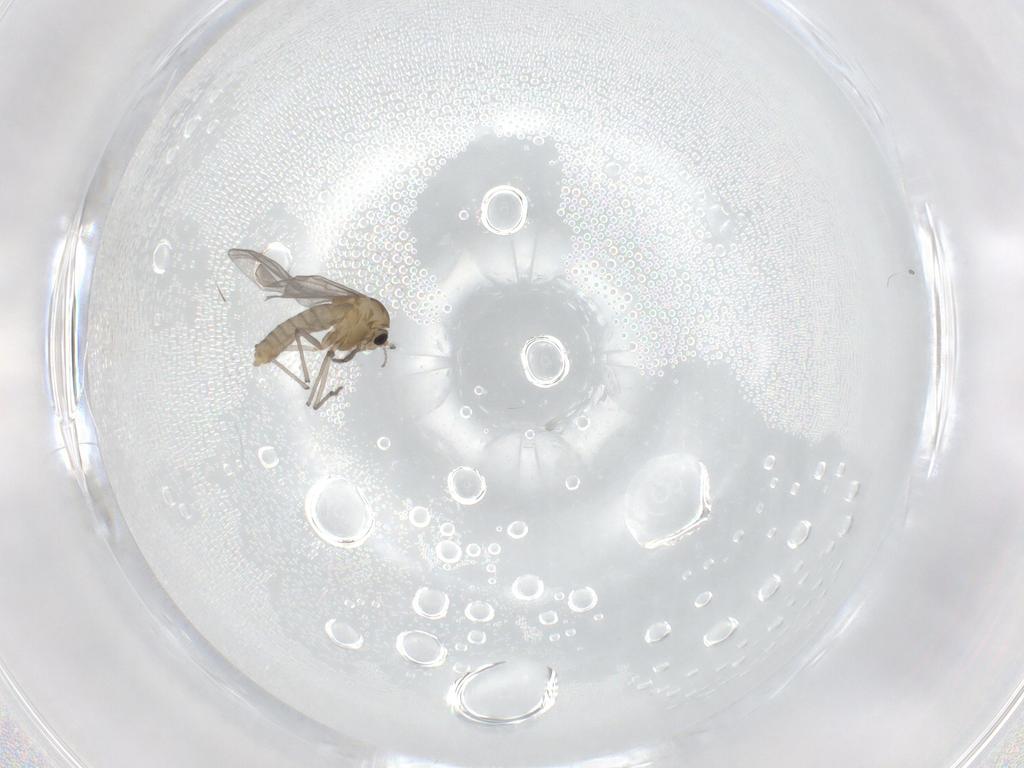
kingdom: Animalia
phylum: Arthropoda
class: Insecta
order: Diptera
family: Chironomidae
